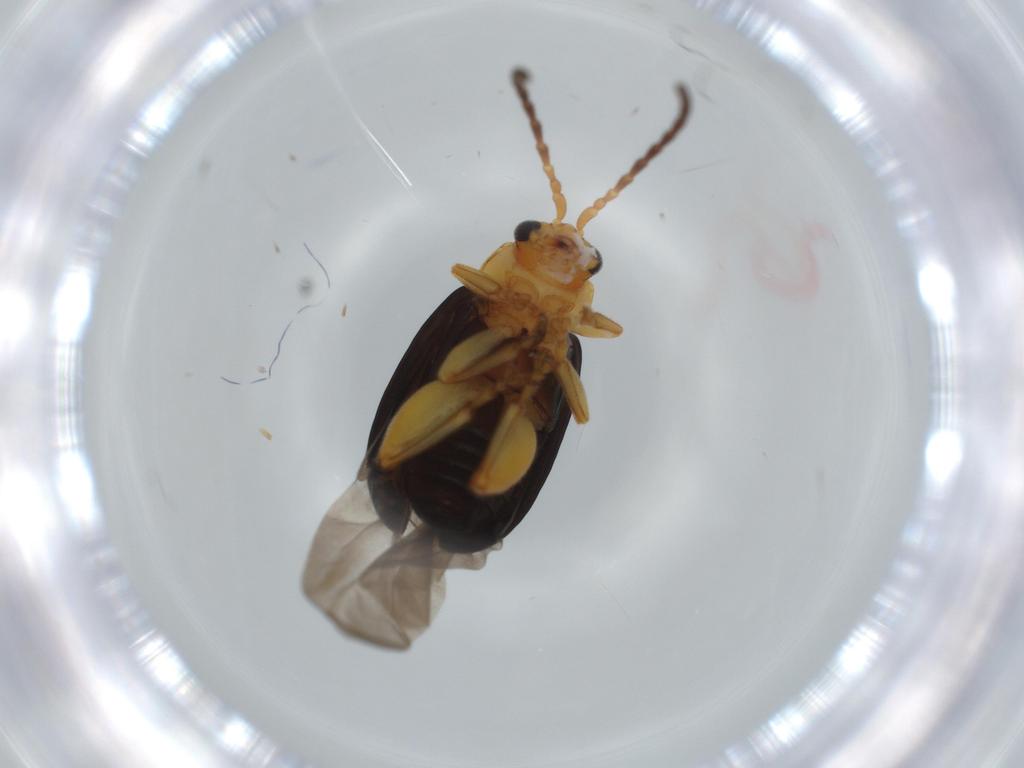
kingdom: Animalia
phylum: Arthropoda
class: Insecta
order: Coleoptera
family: Chrysomelidae
